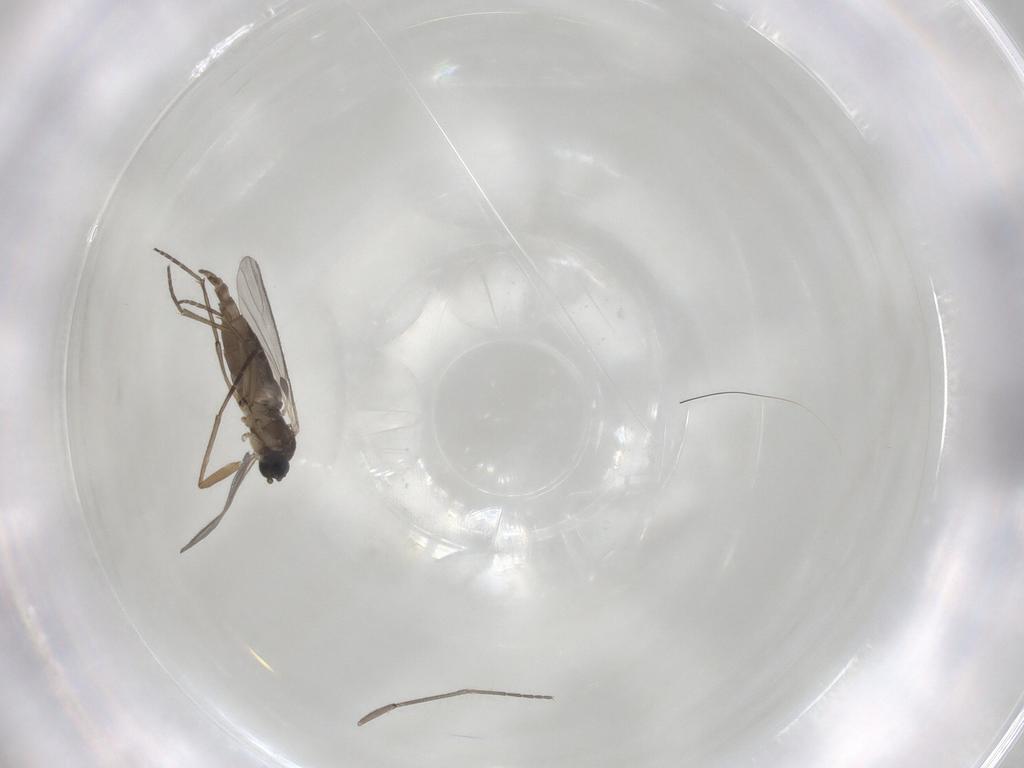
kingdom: Animalia
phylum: Arthropoda
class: Insecta
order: Diptera
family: Sciaridae
